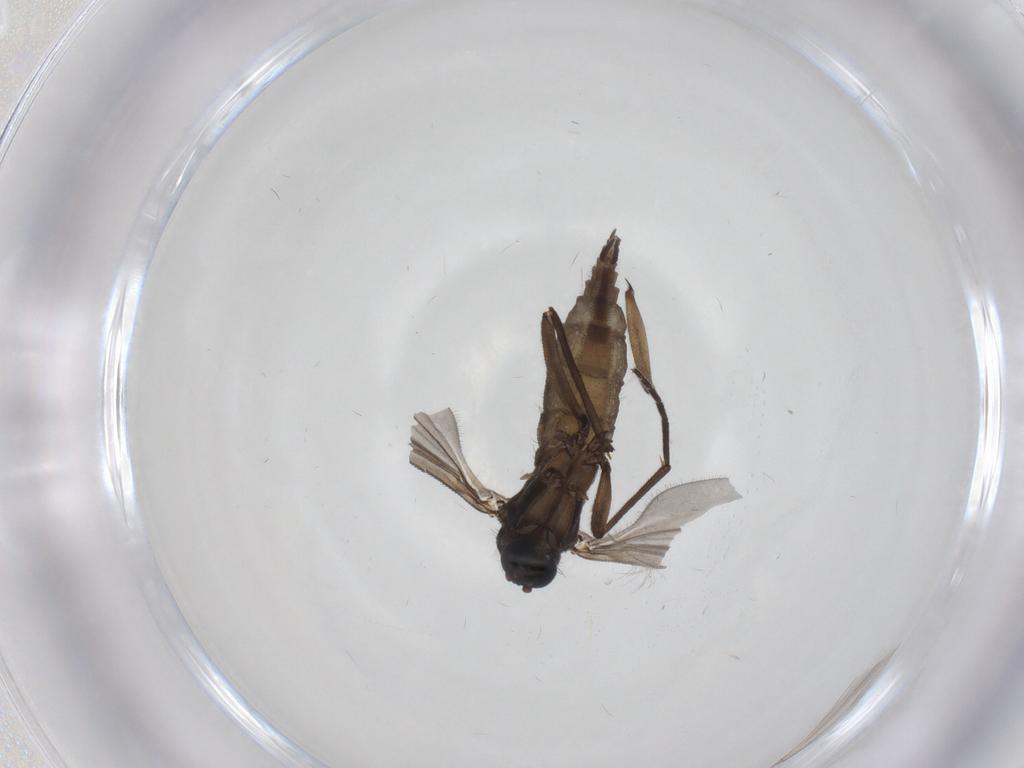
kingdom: Animalia
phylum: Arthropoda
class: Insecta
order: Diptera
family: Sciaridae
